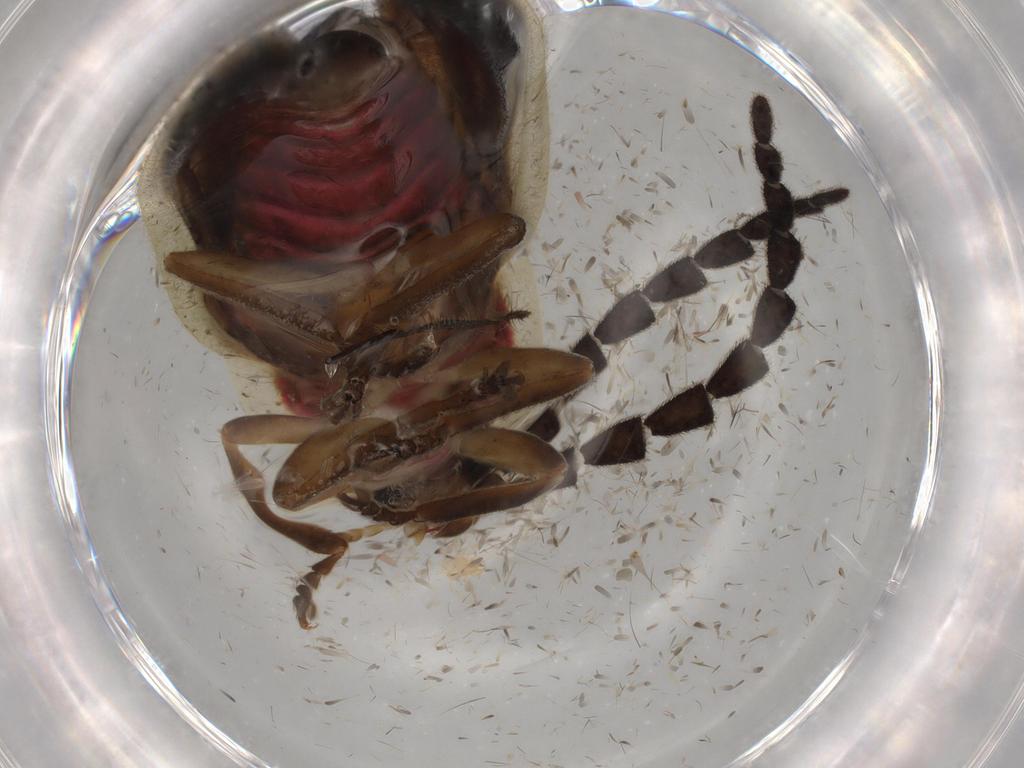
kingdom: Animalia
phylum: Arthropoda
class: Insecta
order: Coleoptera
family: Lampyridae
